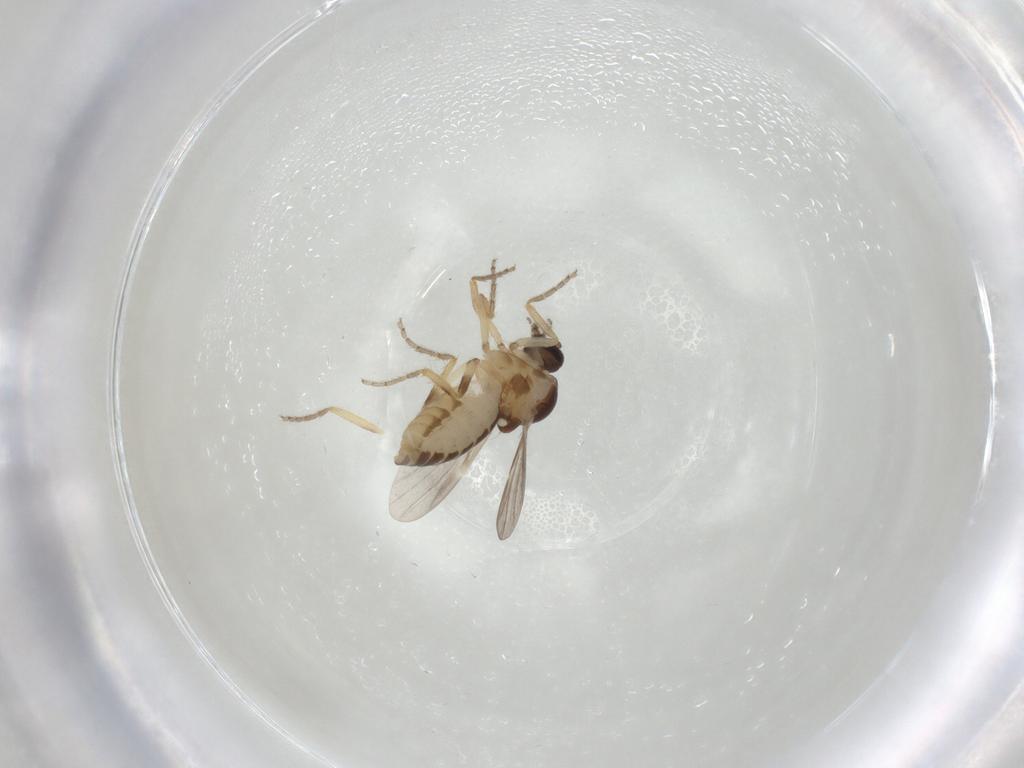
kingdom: Animalia
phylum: Arthropoda
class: Insecta
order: Diptera
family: Ceratopogonidae
